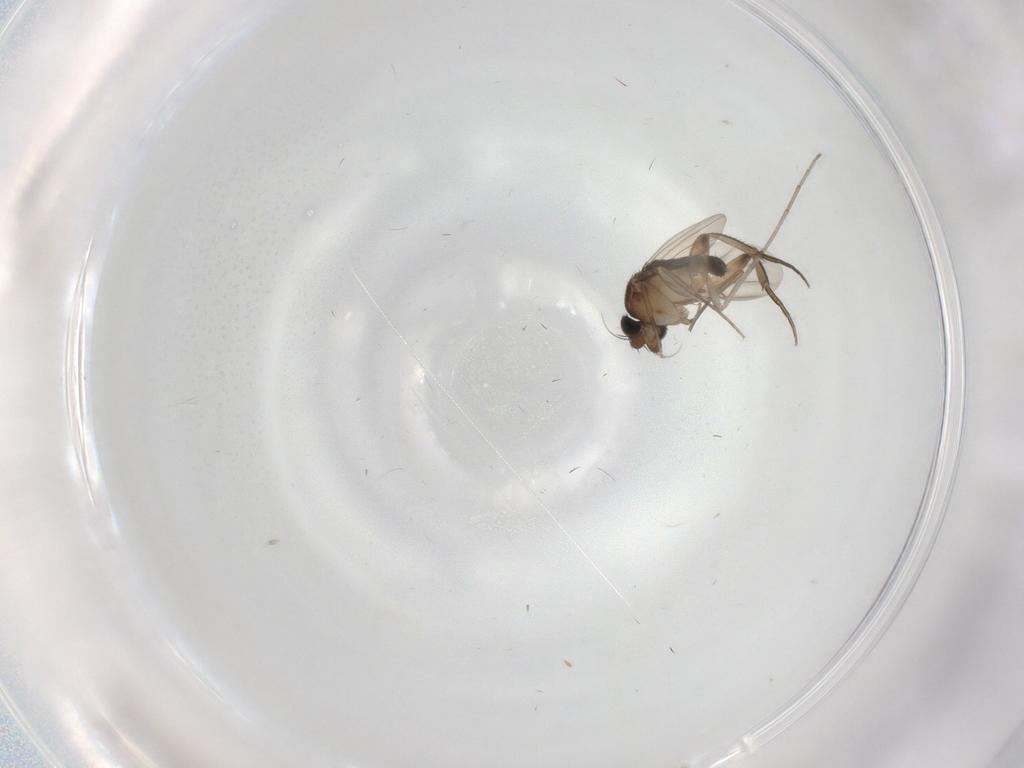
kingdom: Animalia
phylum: Arthropoda
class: Insecta
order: Diptera
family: Phoridae
